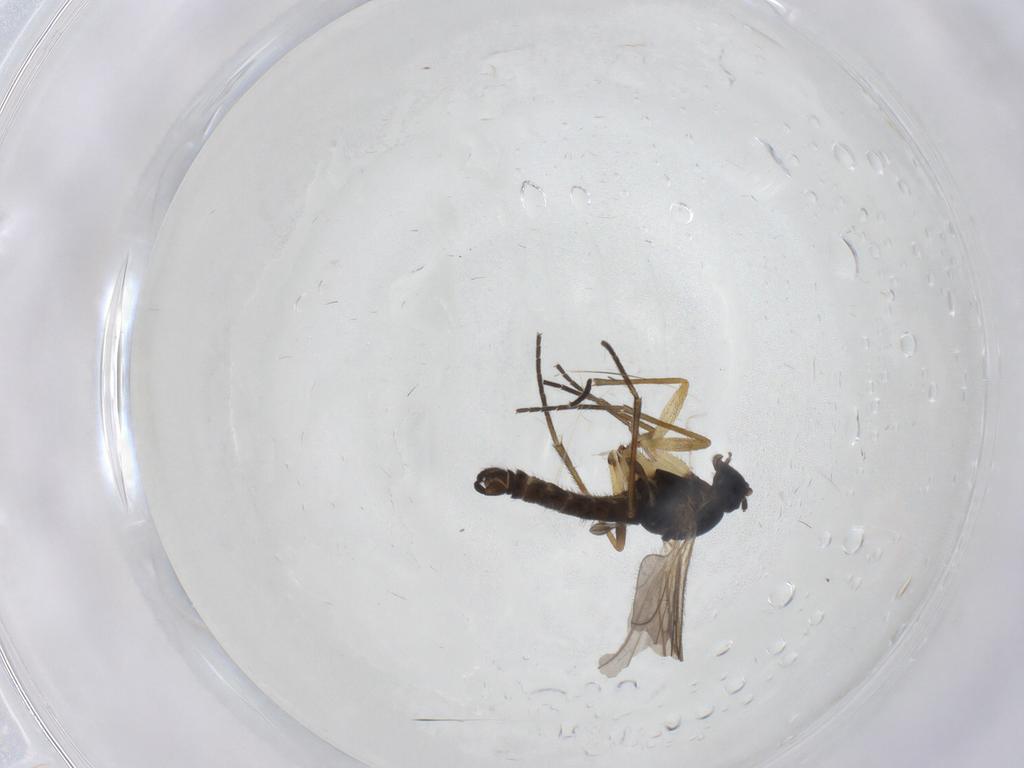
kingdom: Animalia
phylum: Arthropoda
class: Insecta
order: Diptera
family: Sciaridae
